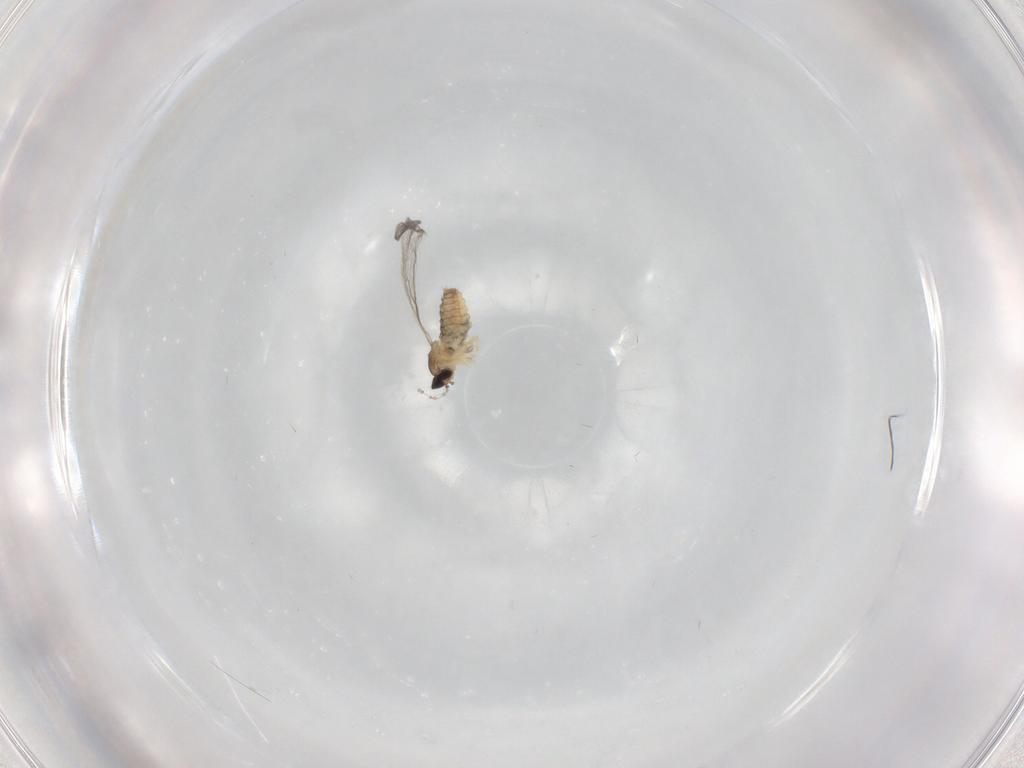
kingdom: Animalia
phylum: Arthropoda
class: Insecta
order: Diptera
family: Cecidomyiidae
